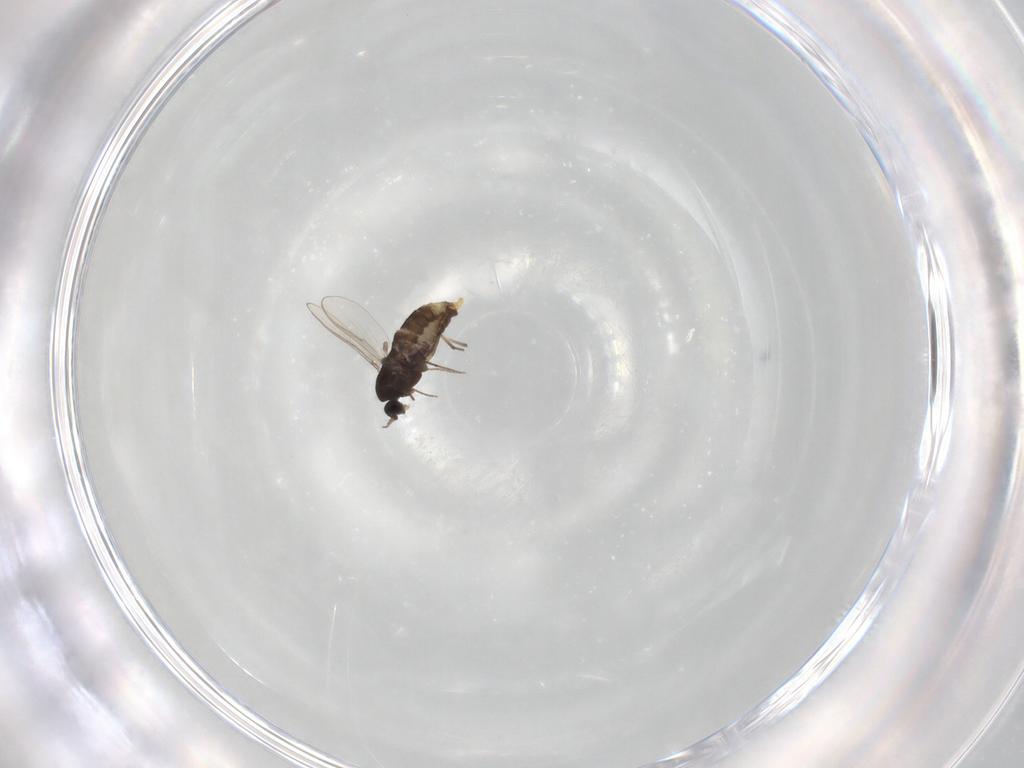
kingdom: Animalia
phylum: Arthropoda
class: Insecta
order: Diptera
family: Chironomidae
